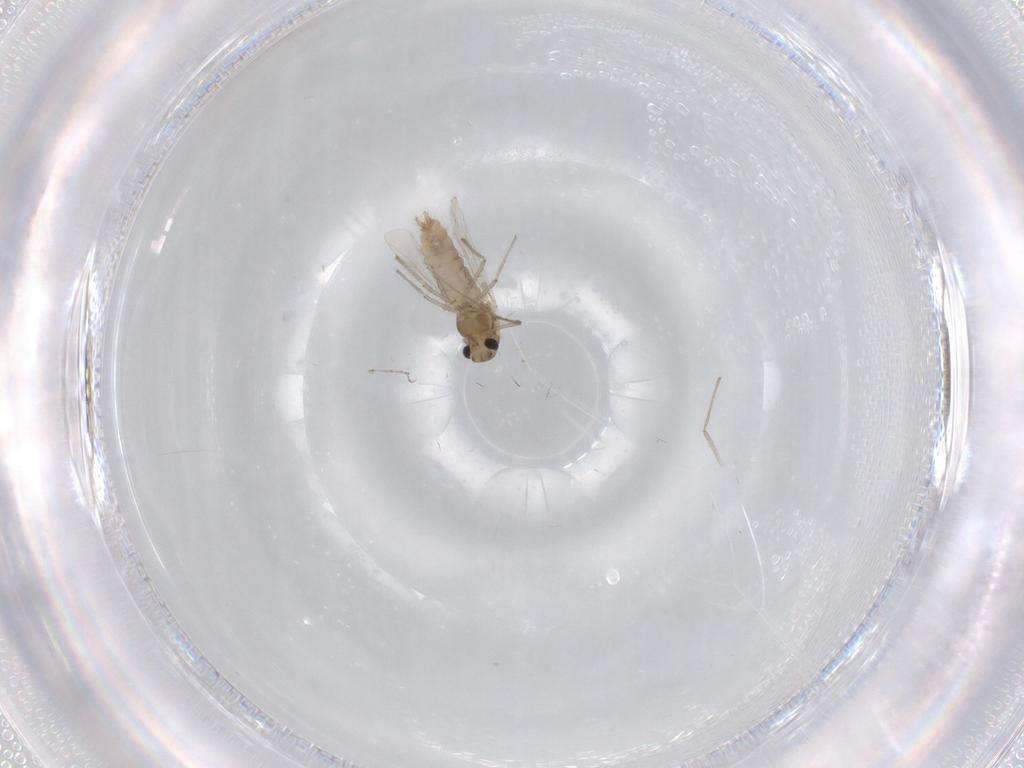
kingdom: Animalia
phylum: Arthropoda
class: Insecta
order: Diptera
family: Chironomidae
